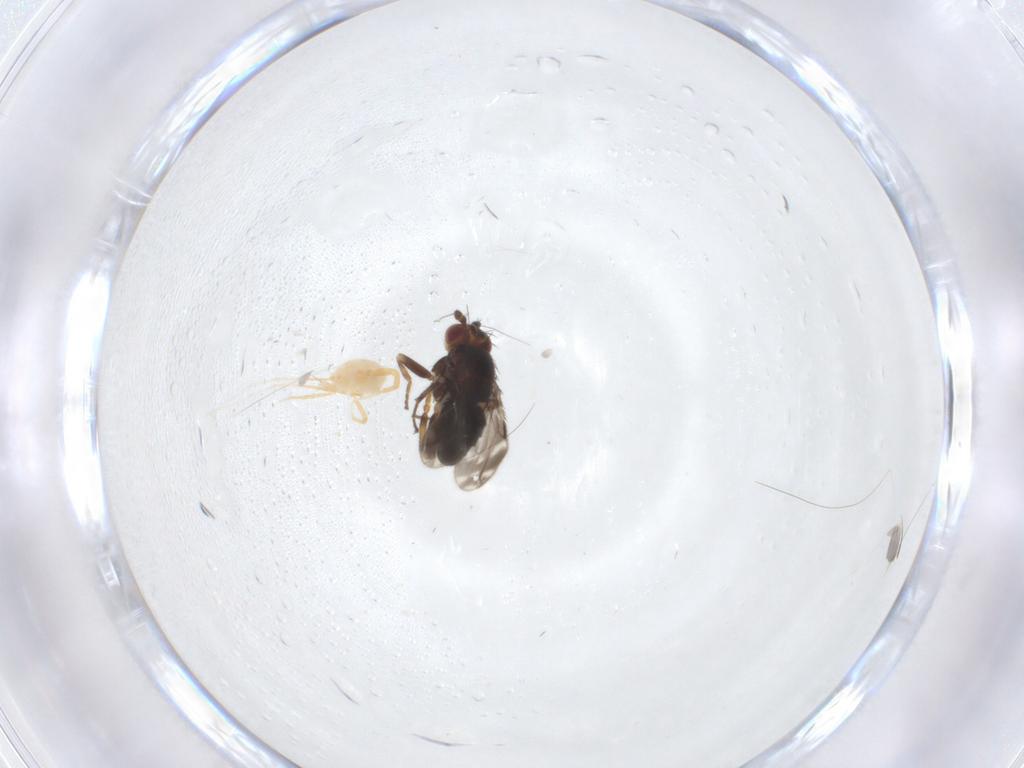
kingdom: Animalia
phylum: Arthropoda
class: Insecta
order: Diptera
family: Sphaeroceridae
